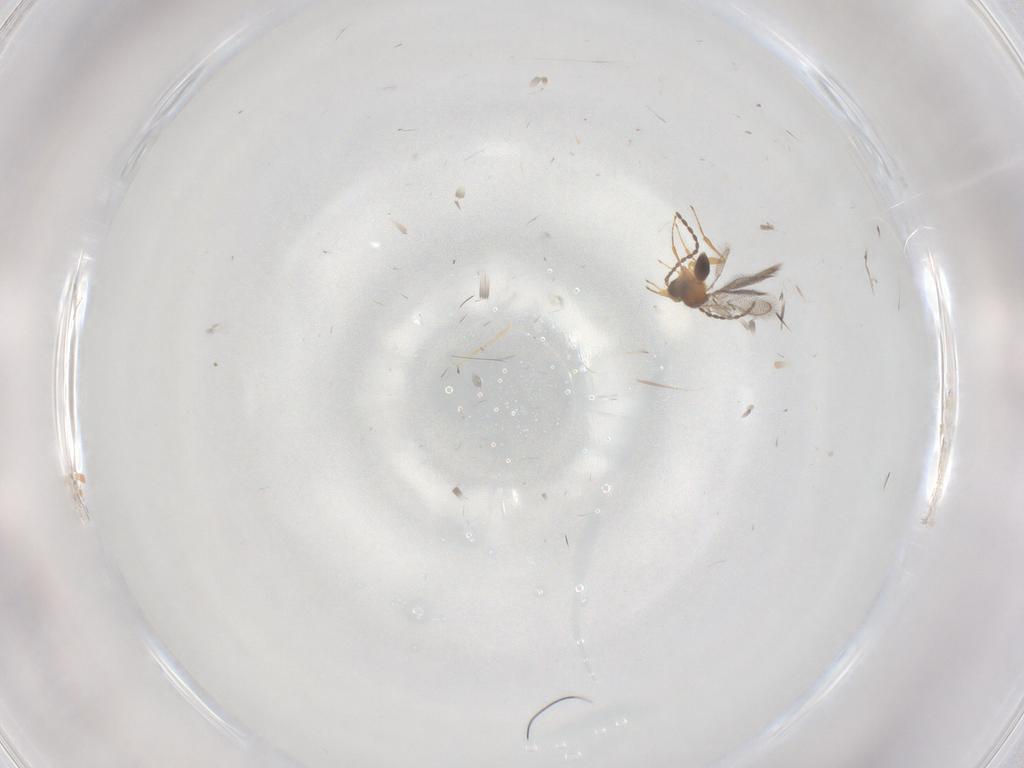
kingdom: Animalia
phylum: Arthropoda
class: Insecta
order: Hymenoptera
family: Figitidae
